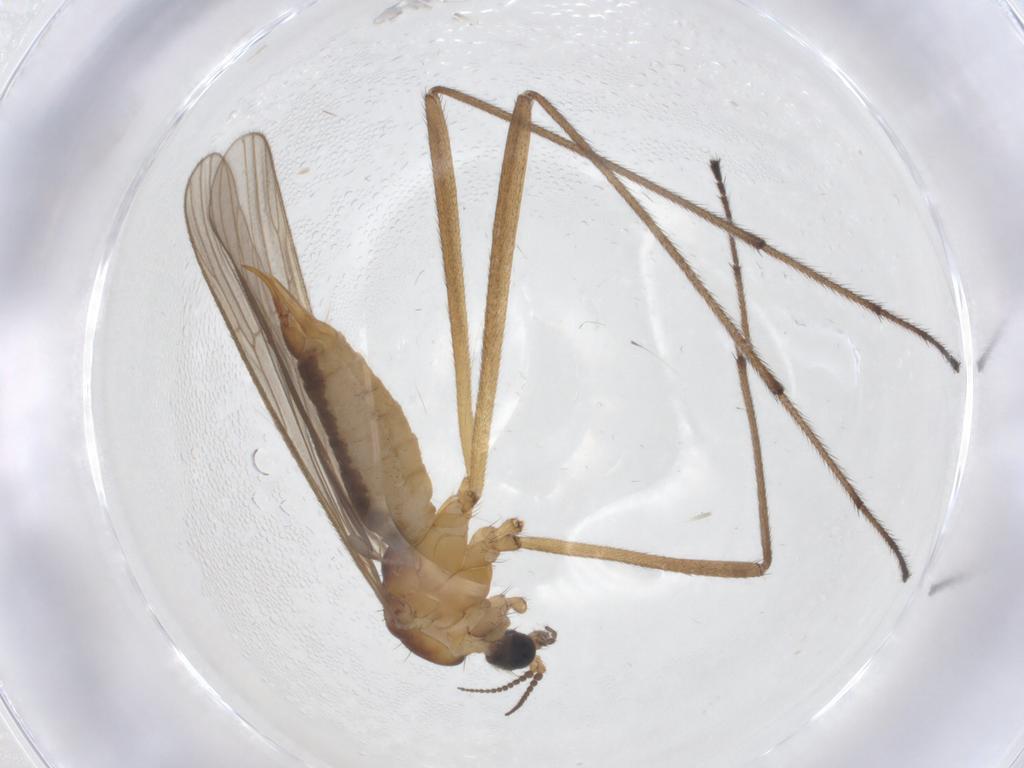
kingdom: Animalia
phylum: Arthropoda
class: Insecta
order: Diptera
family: Limoniidae
